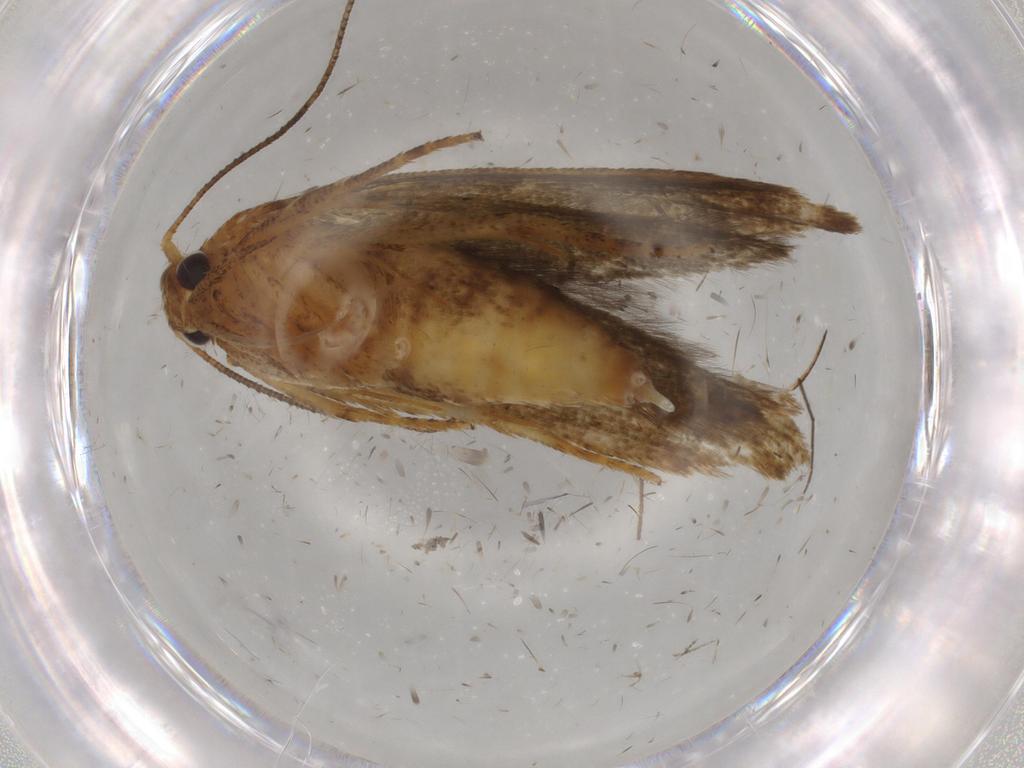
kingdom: Animalia
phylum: Arthropoda
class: Insecta
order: Lepidoptera
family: Blastobasidae
